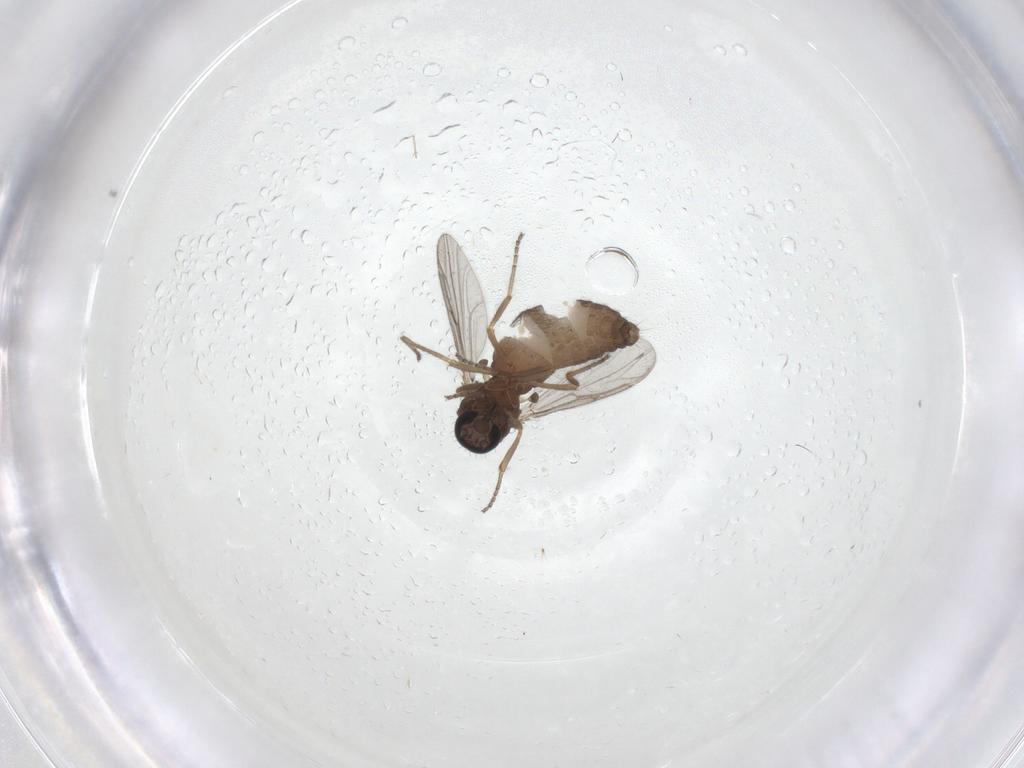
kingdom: Animalia
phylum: Arthropoda
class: Insecta
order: Diptera
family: Ceratopogonidae
